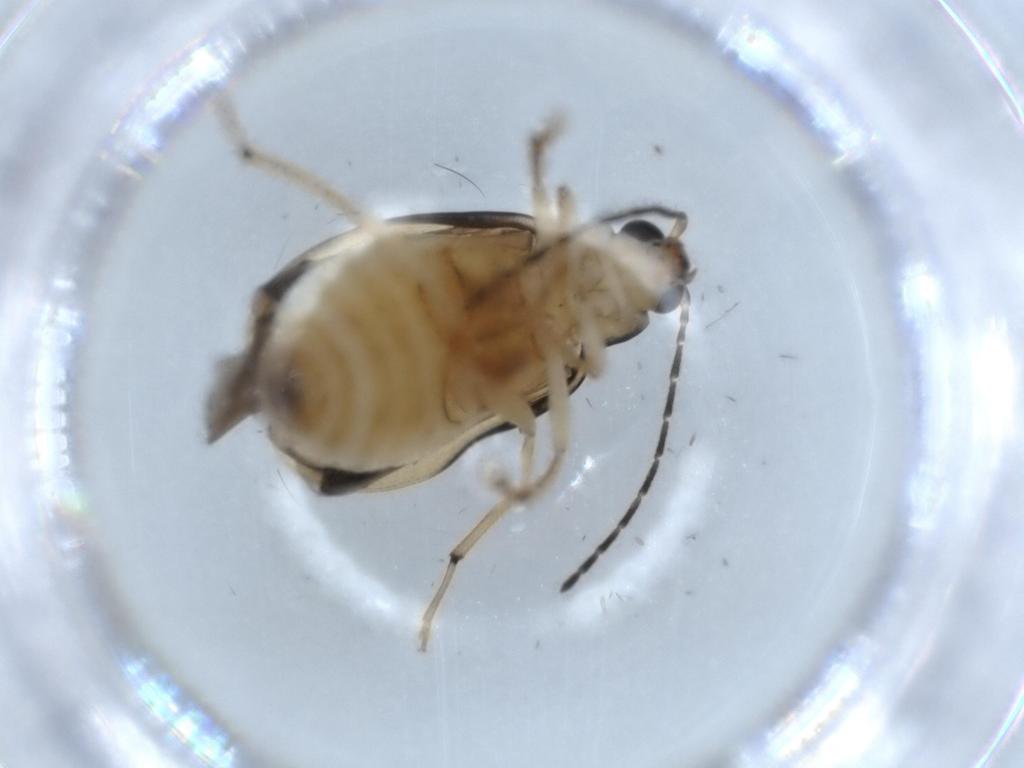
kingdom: Animalia
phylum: Arthropoda
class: Insecta
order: Coleoptera
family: Chrysomelidae
